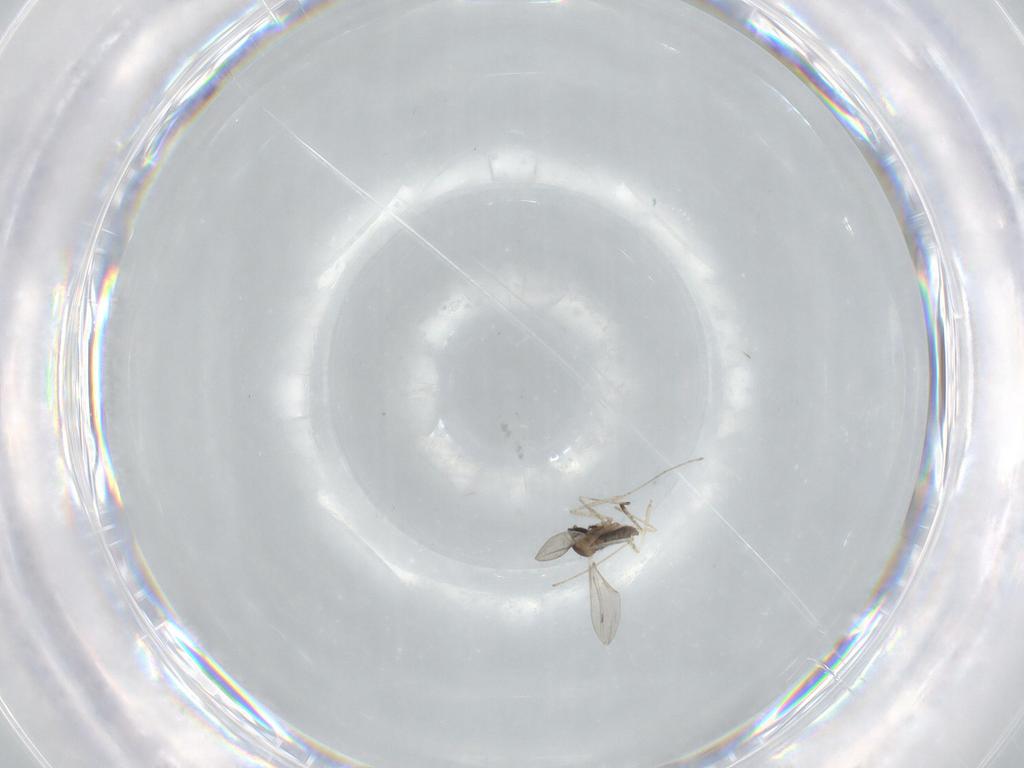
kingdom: Animalia
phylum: Arthropoda
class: Insecta
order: Diptera
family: Cecidomyiidae
